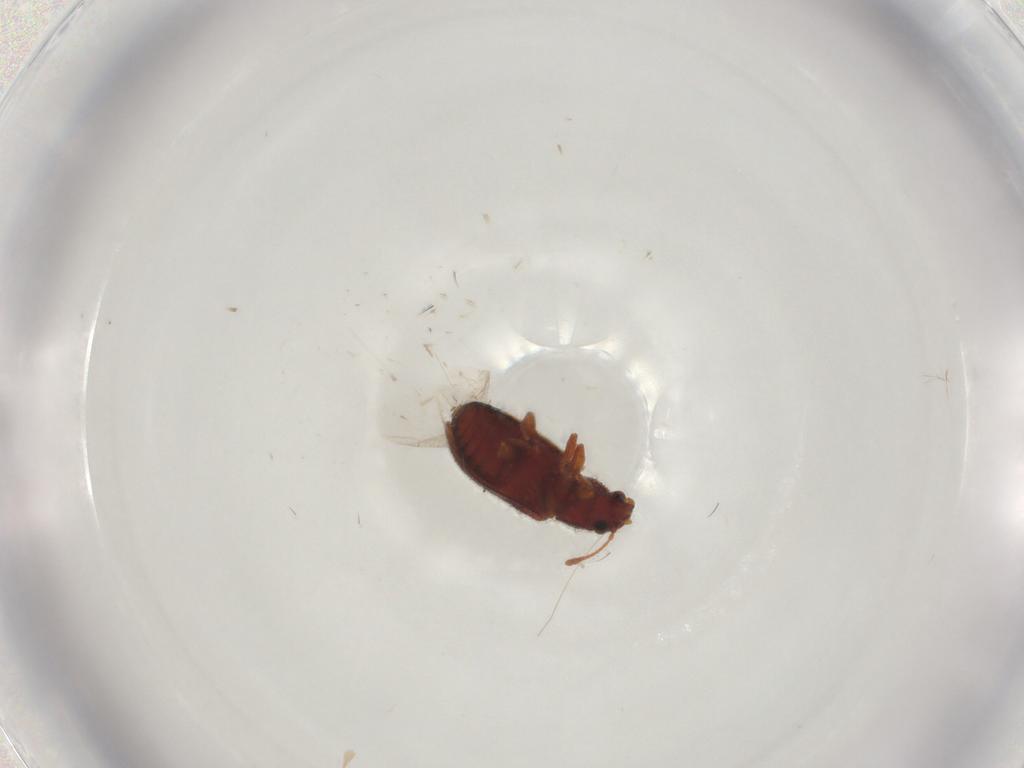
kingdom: Animalia
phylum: Arthropoda
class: Insecta
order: Coleoptera
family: Mycetophagidae
